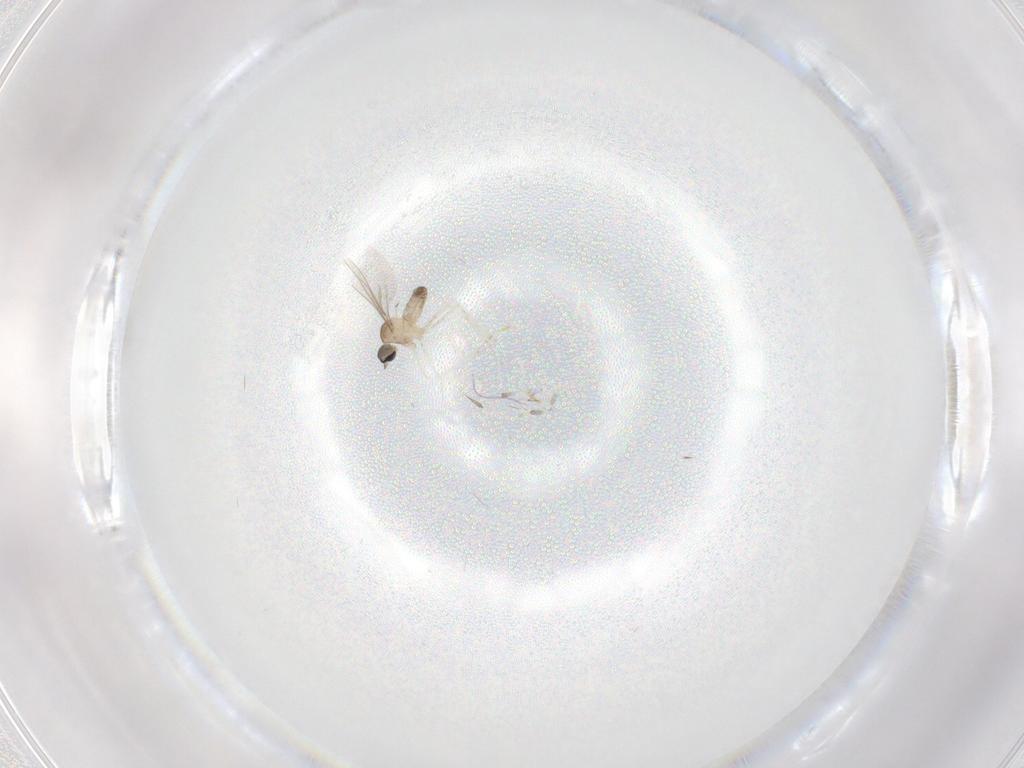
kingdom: Animalia
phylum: Arthropoda
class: Insecta
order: Diptera
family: Cecidomyiidae
